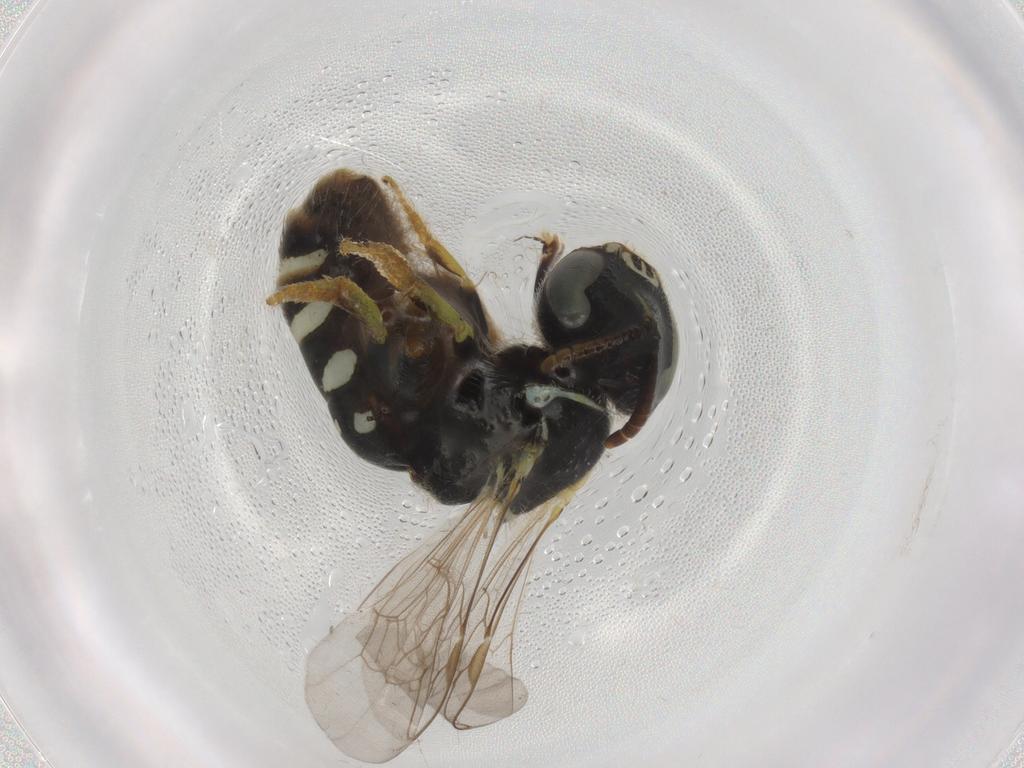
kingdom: Animalia
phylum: Arthropoda
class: Insecta
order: Hymenoptera
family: Halictidae
